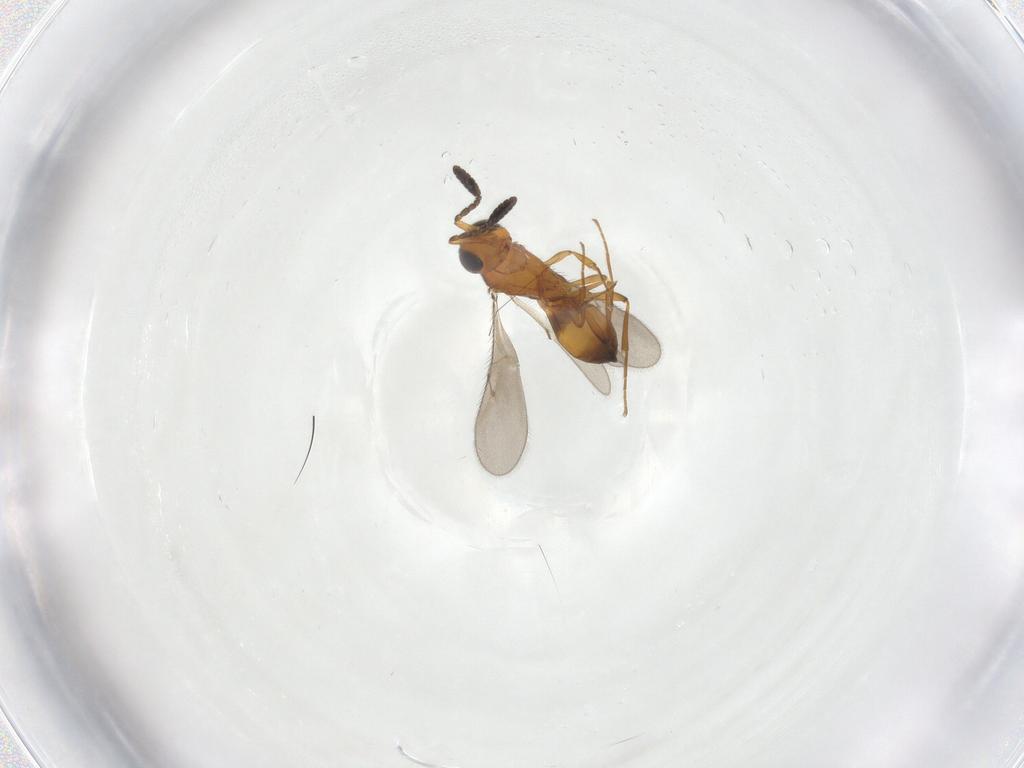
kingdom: Animalia
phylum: Arthropoda
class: Insecta
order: Hymenoptera
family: Scelionidae
